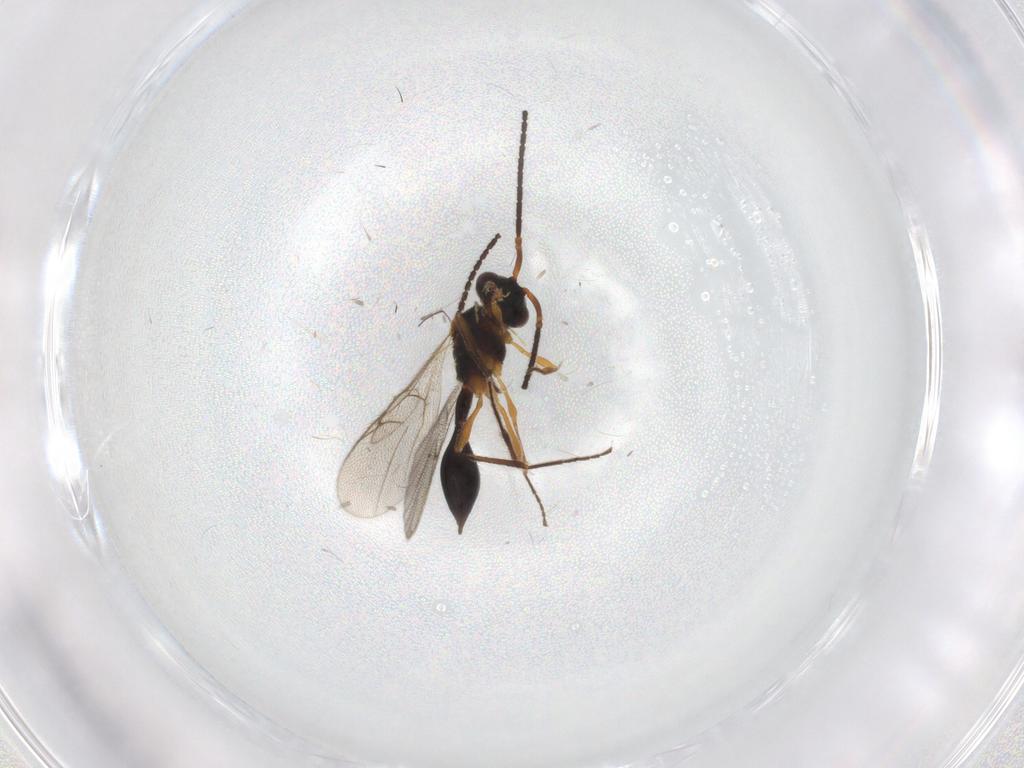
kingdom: Animalia
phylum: Arthropoda
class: Insecta
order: Hymenoptera
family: Diapriidae
